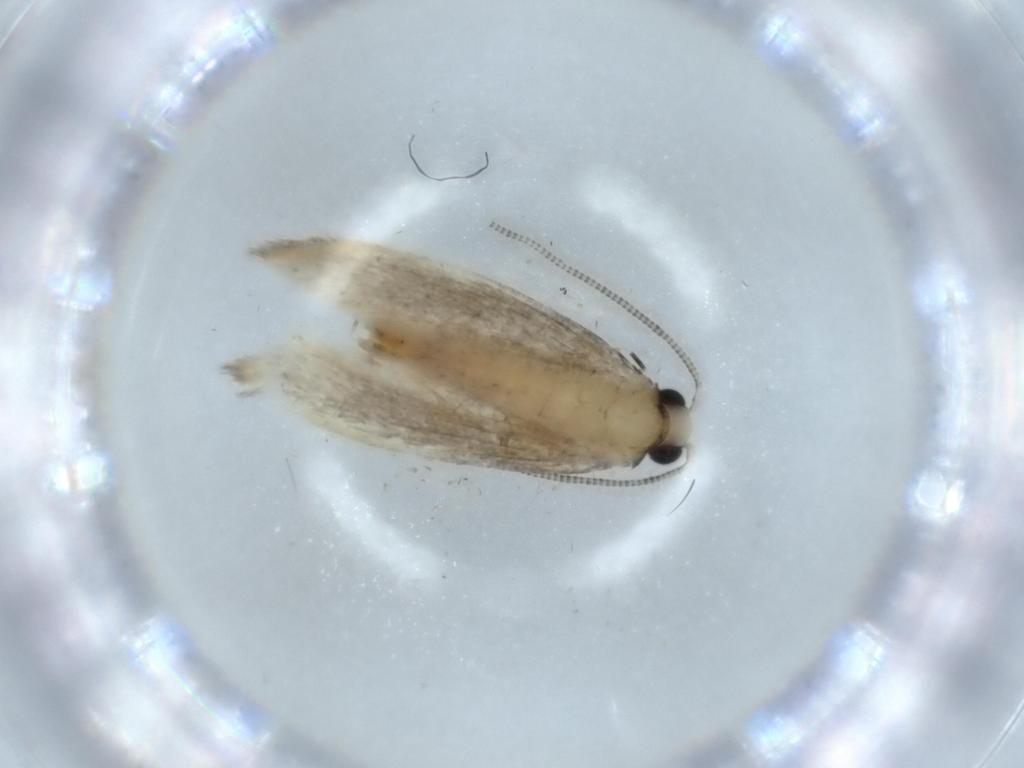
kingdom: Animalia
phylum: Arthropoda
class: Insecta
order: Lepidoptera
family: Tineidae
